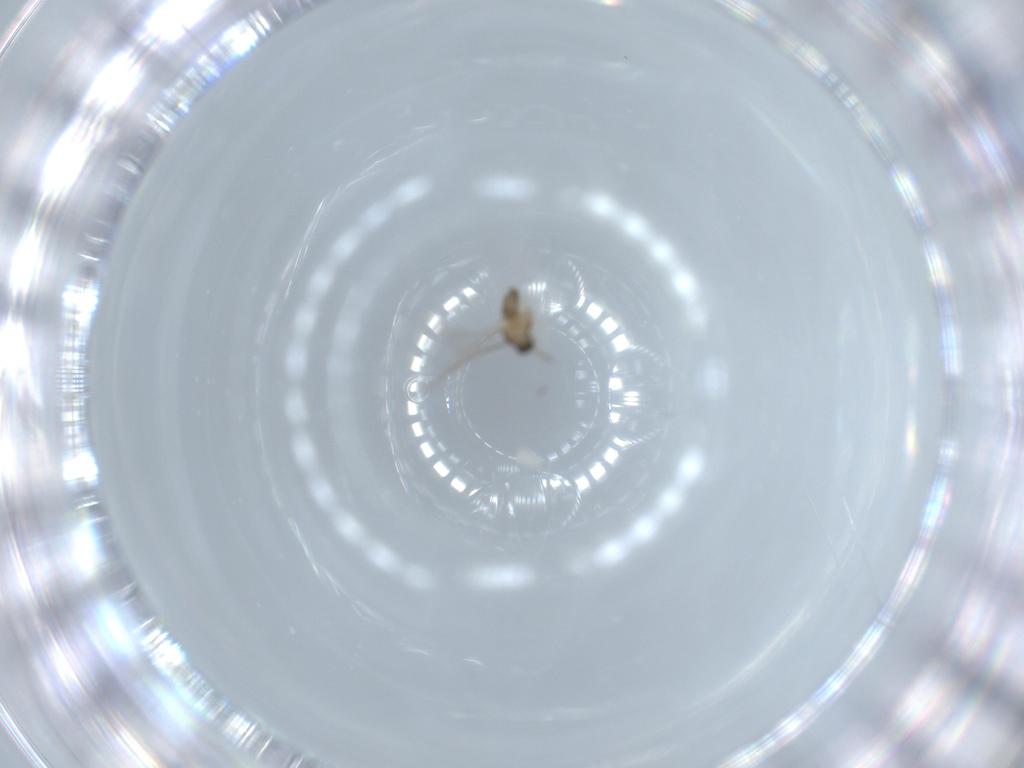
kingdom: Animalia
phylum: Arthropoda
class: Insecta
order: Diptera
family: Cecidomyiidae
